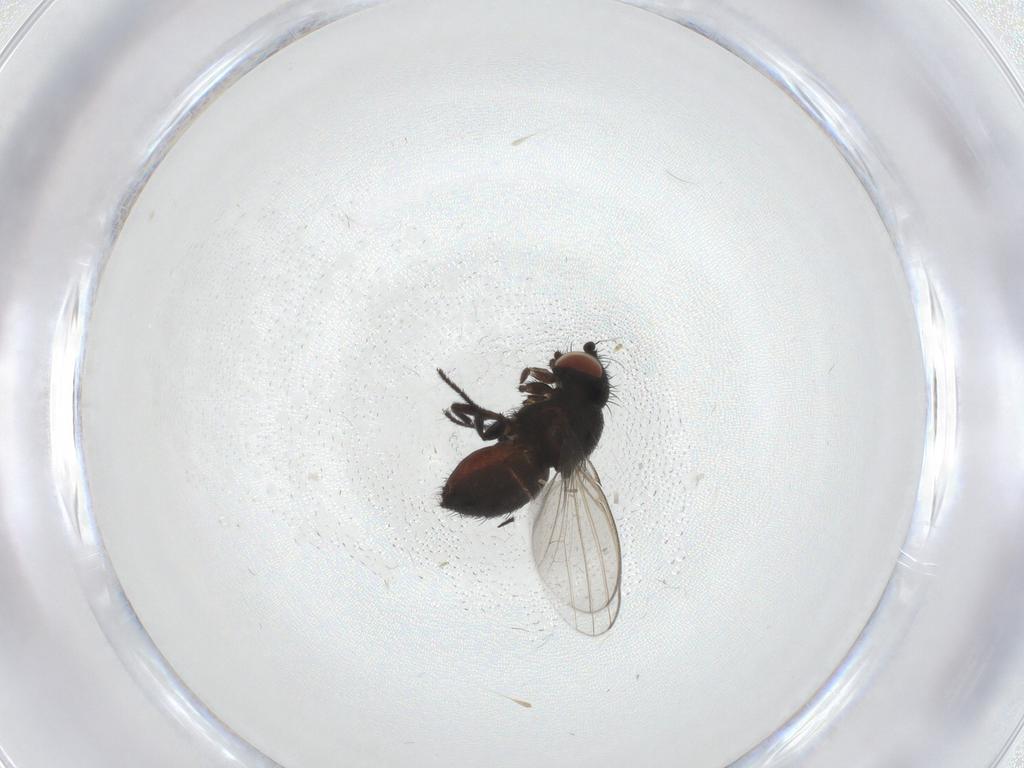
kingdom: Animalia
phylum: Arthropoda
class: Insecta
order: Diptera
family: Milichiidae
